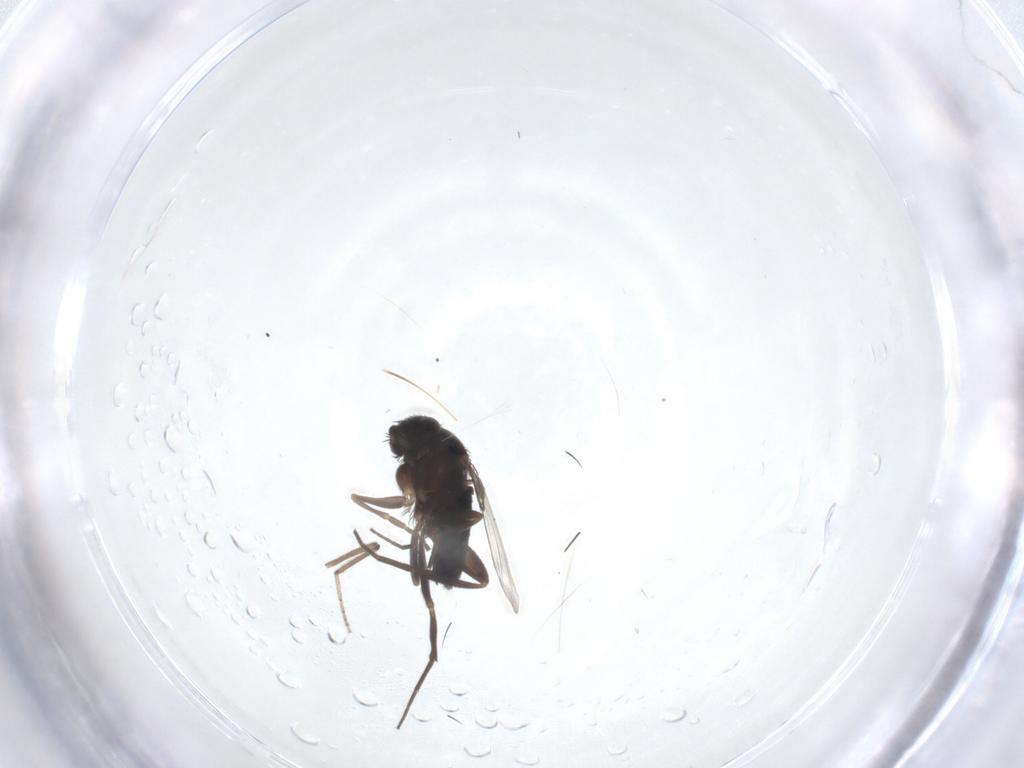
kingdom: Animalia
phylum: Arthropoda
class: Insecta
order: Diptera
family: Phoridae
